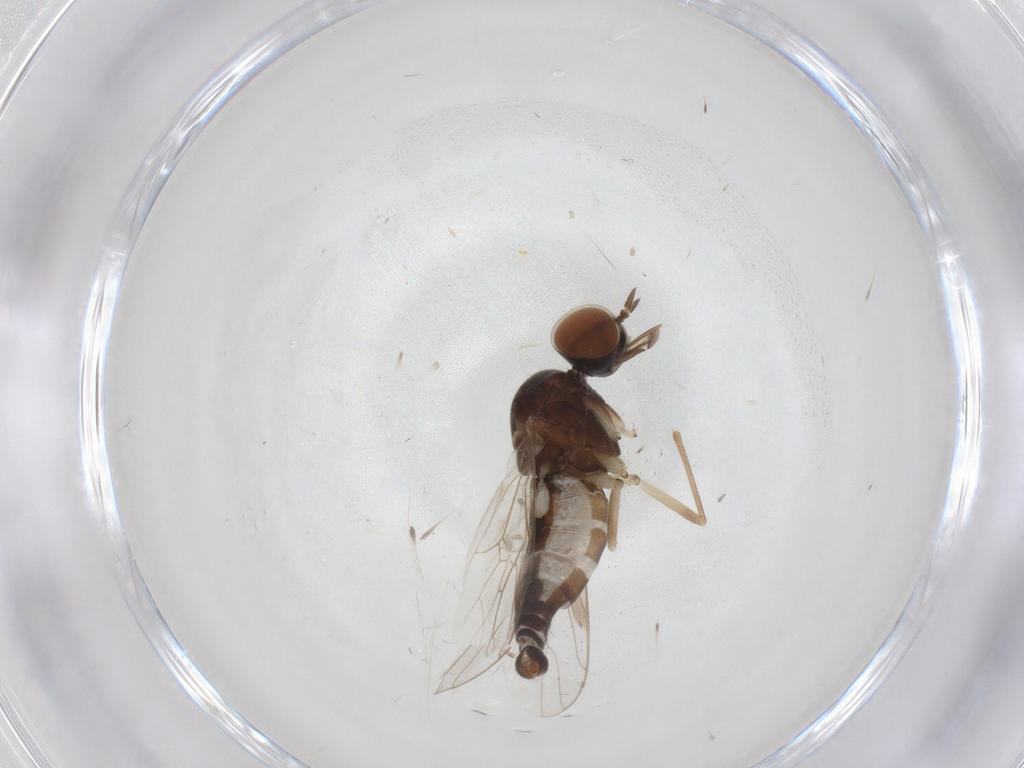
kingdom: Animalia
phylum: Arthropoda
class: Insecta
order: Diptera
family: Scenopinidae
